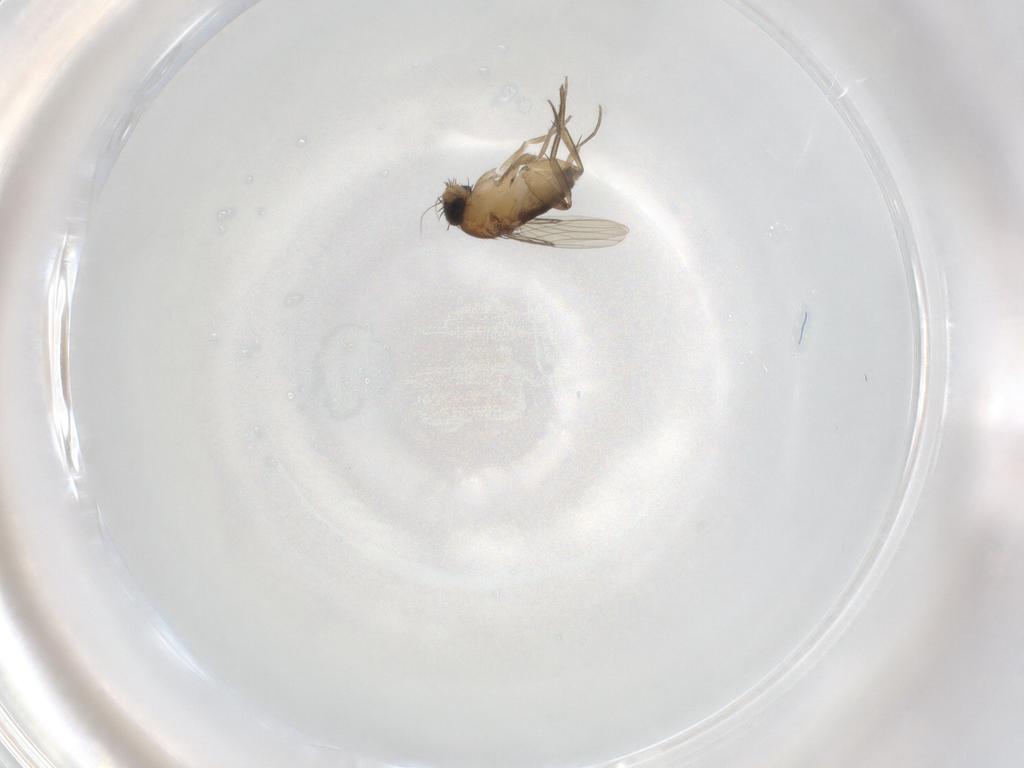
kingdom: Animalia
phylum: Arthropoda
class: Insecta
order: Diptera
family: Phoridae
